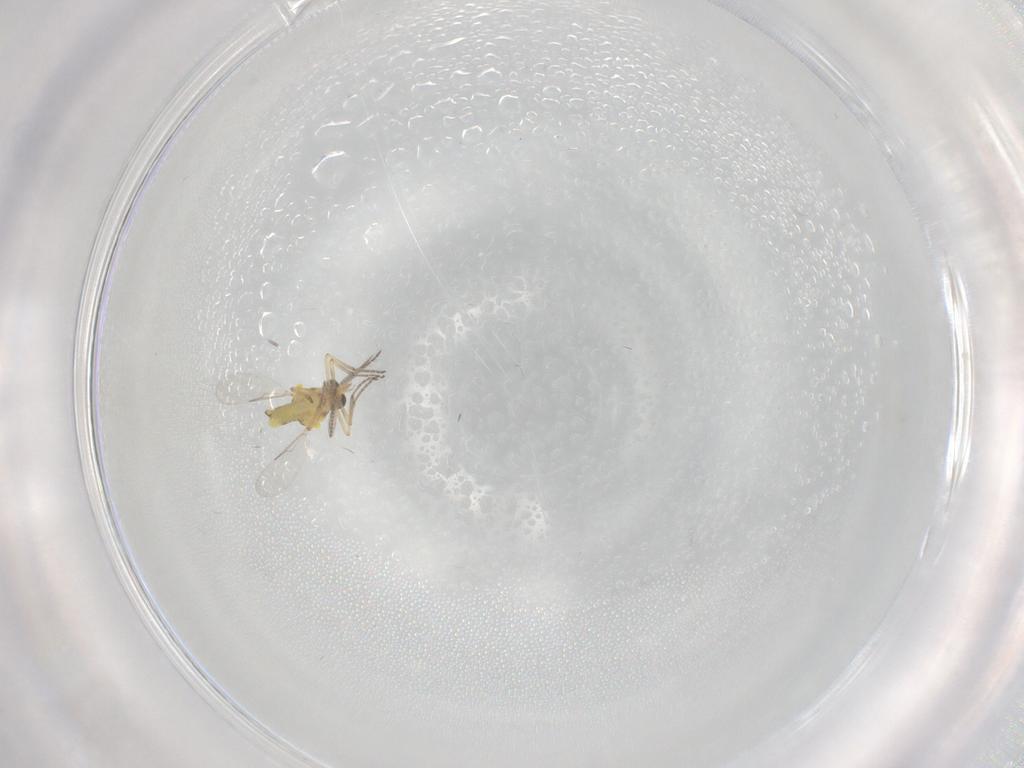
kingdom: Animalia
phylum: Arthropoda
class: Insecta
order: Diptera
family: Ceratopogonidae
